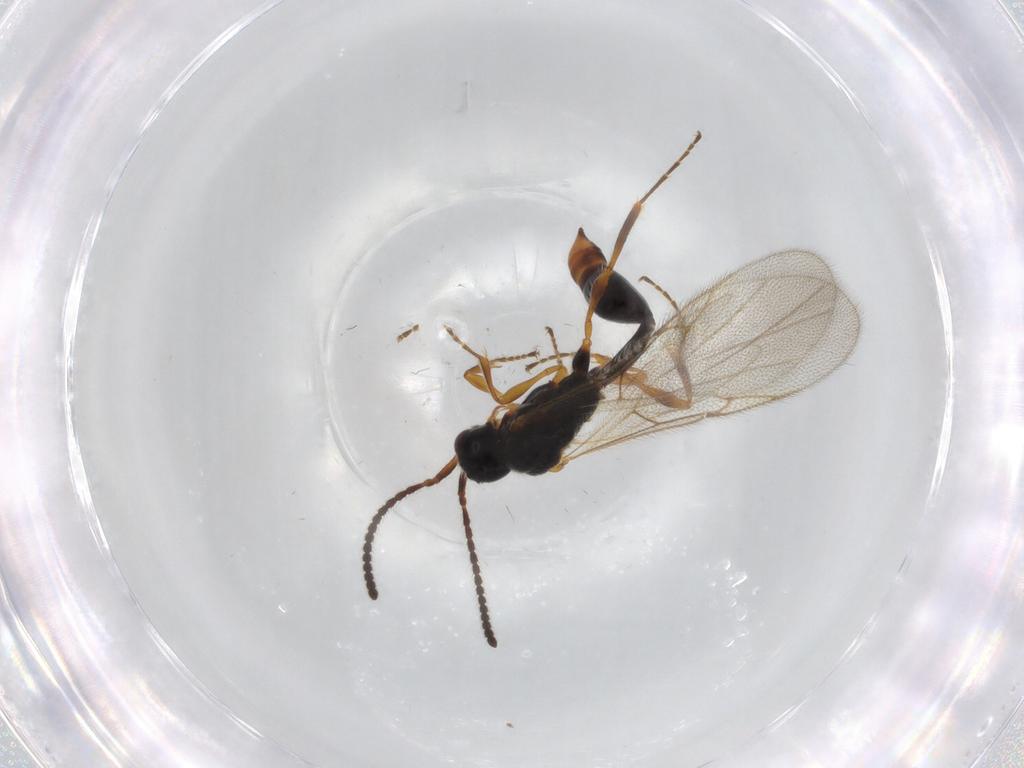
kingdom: Animalia
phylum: Arthropoda
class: Insecta
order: Hymenoptera
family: Diapriidae
